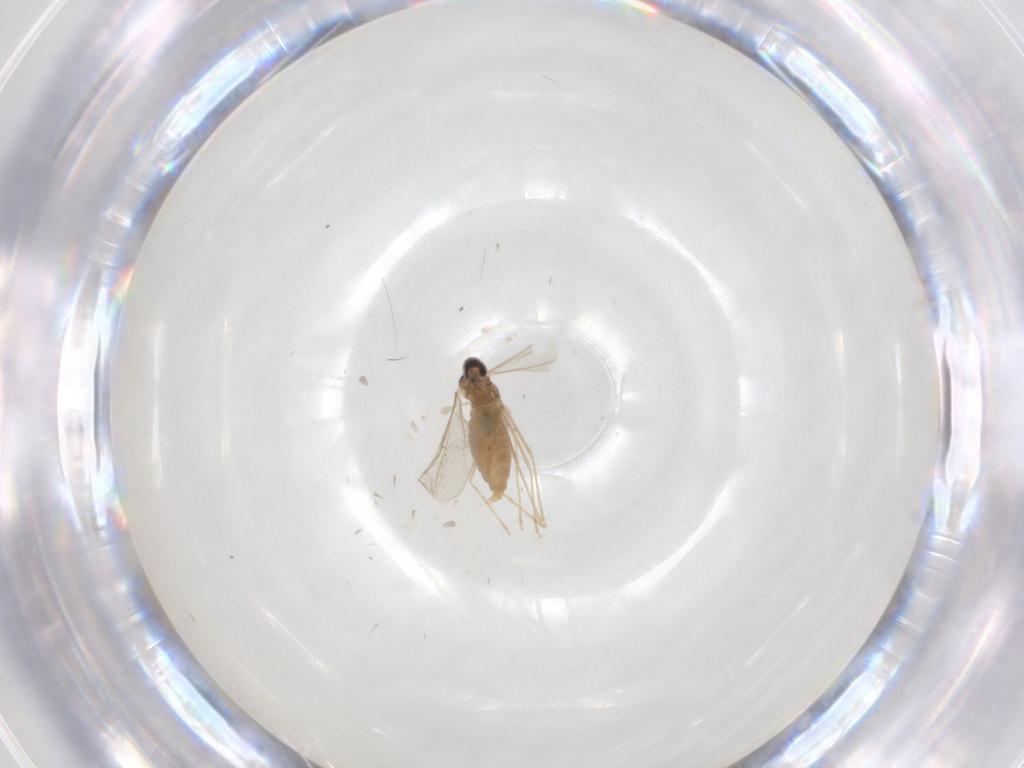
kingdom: Animalia
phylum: Arthropoda
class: Insecta
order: Diptera
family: Cecidomyiidae
